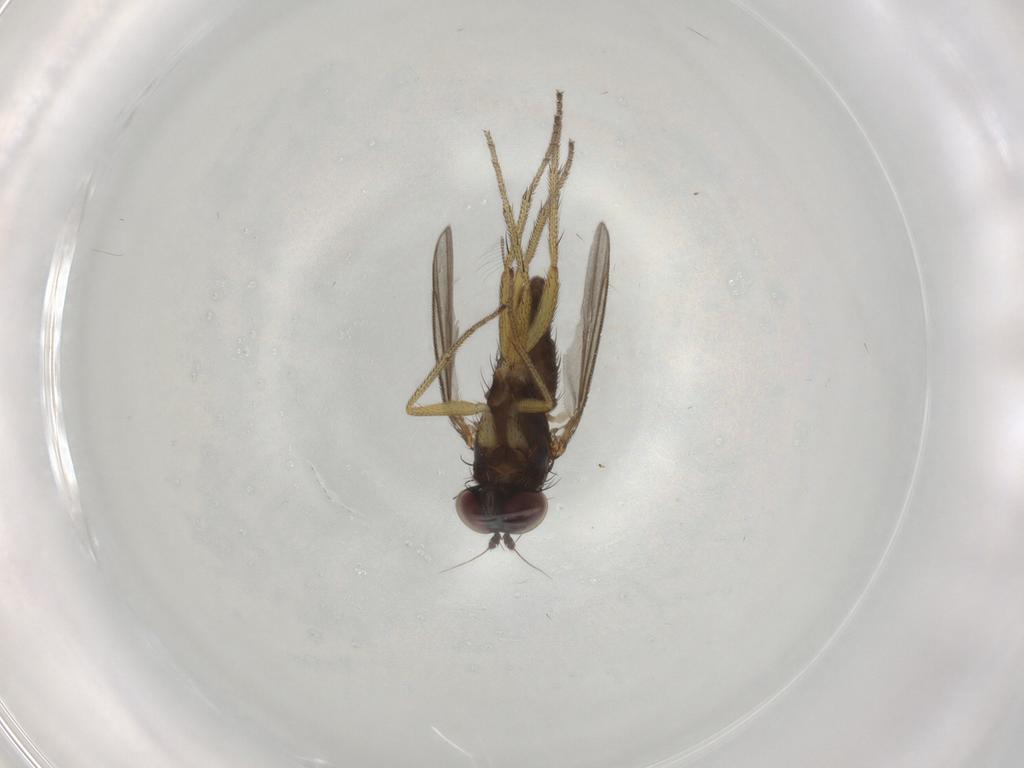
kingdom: Animalia
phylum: Arthropoda
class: Insecta
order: Diptera
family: Dolichopodidae
